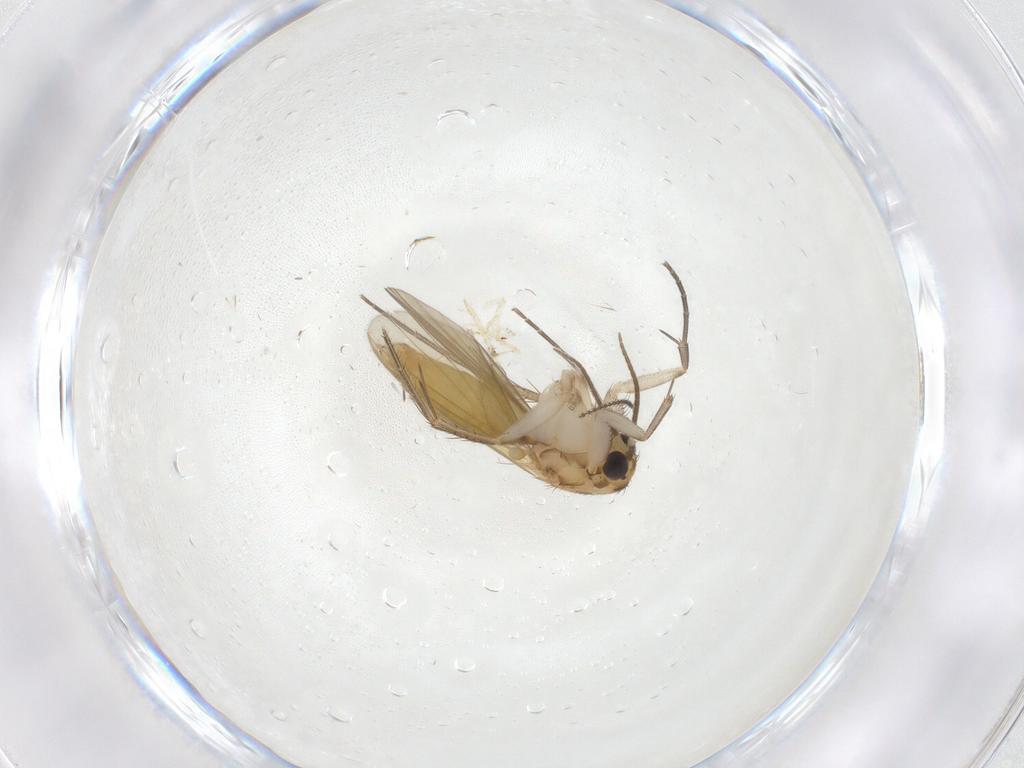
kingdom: Animalia
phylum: Arthropoda
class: Insecta
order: Diptera
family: Mycetophilidae
